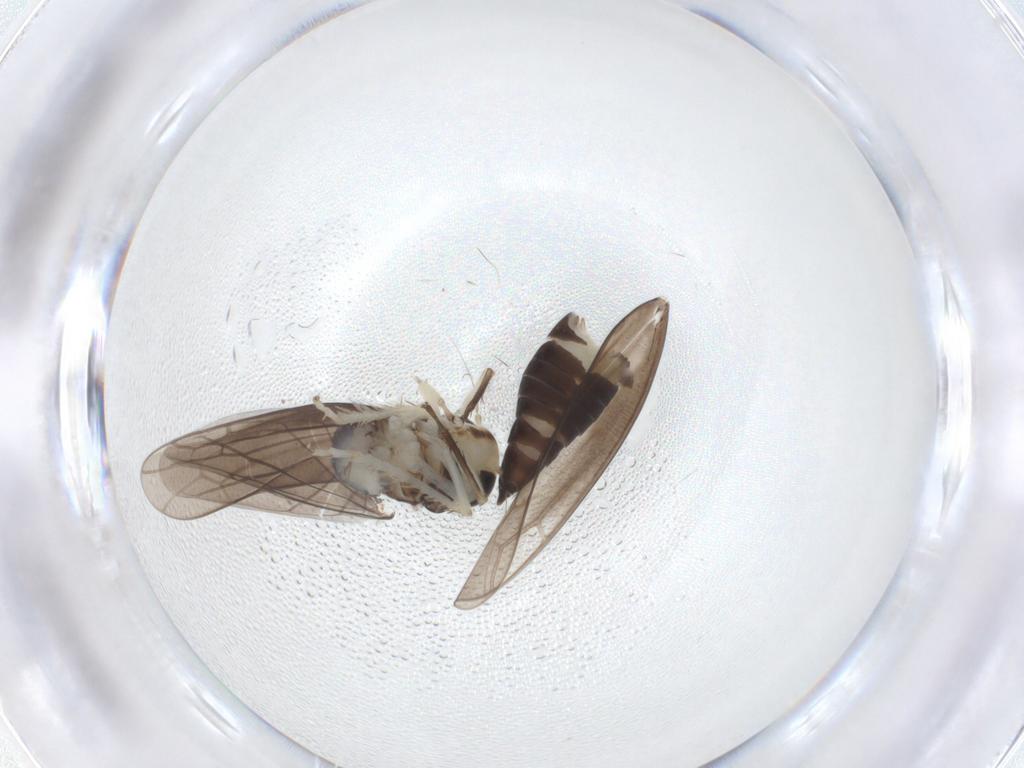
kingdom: Animalia
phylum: Arthropoda
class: Insecta
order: Hemiptera
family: Cicadellidae
